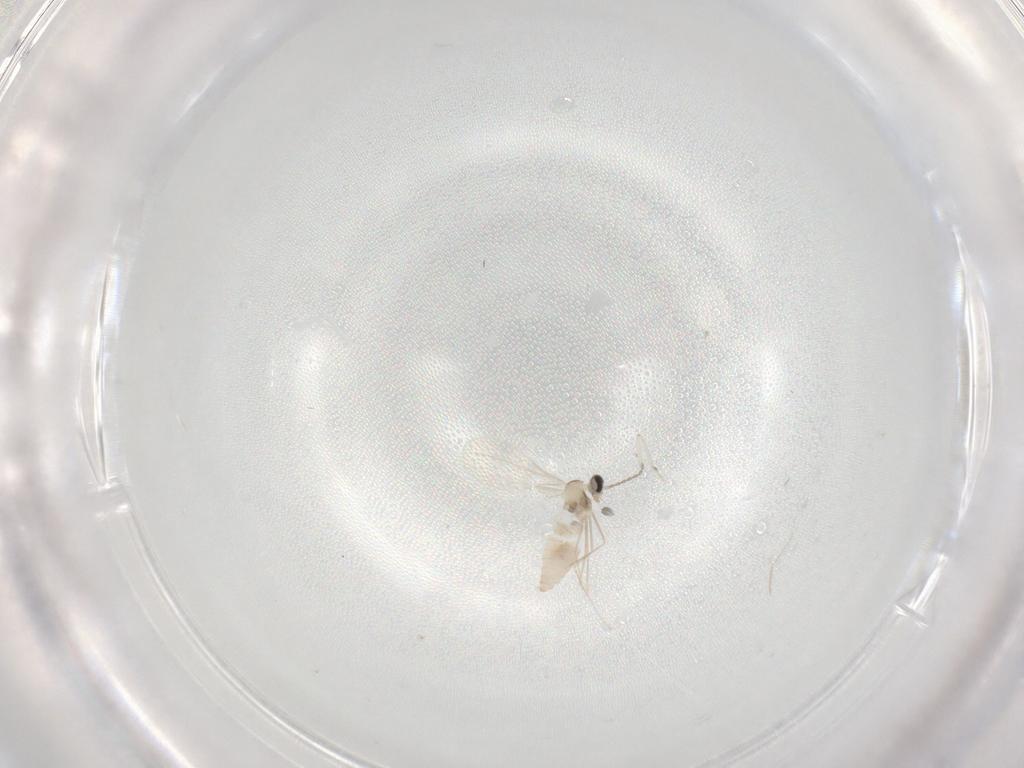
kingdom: Animalia
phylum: Arthropoda
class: Insecta
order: Diptera
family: Cecidomyiidae
